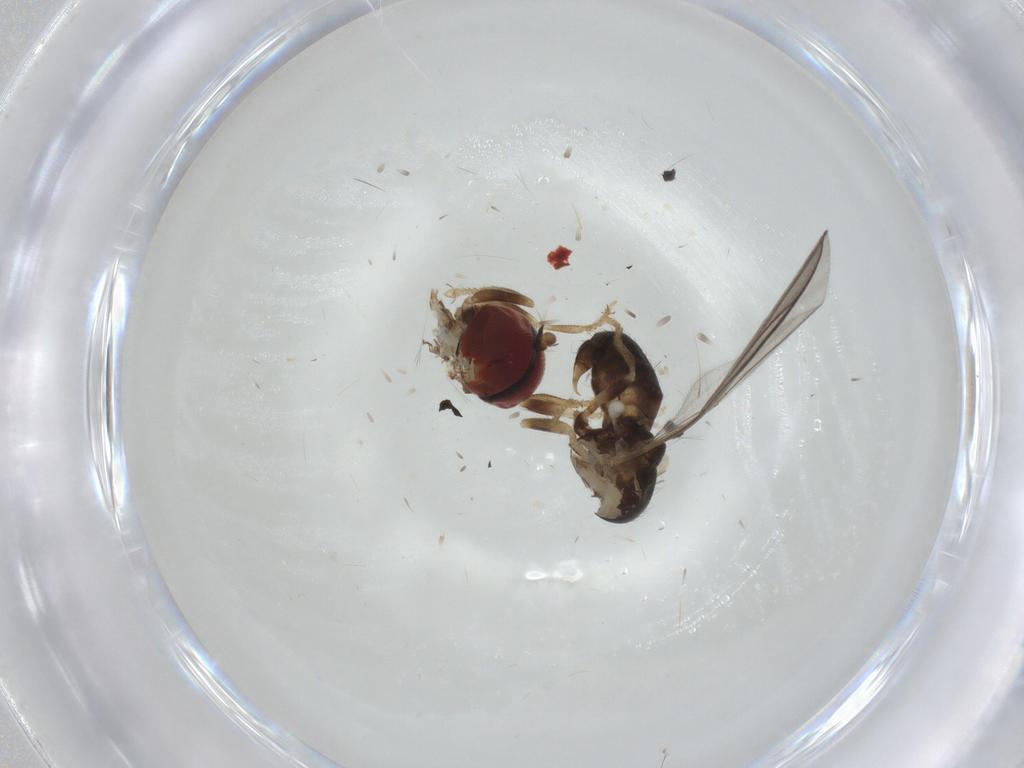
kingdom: Animalia
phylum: Arthropoda
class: Insecta
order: Diptera
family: Pipunculidae
